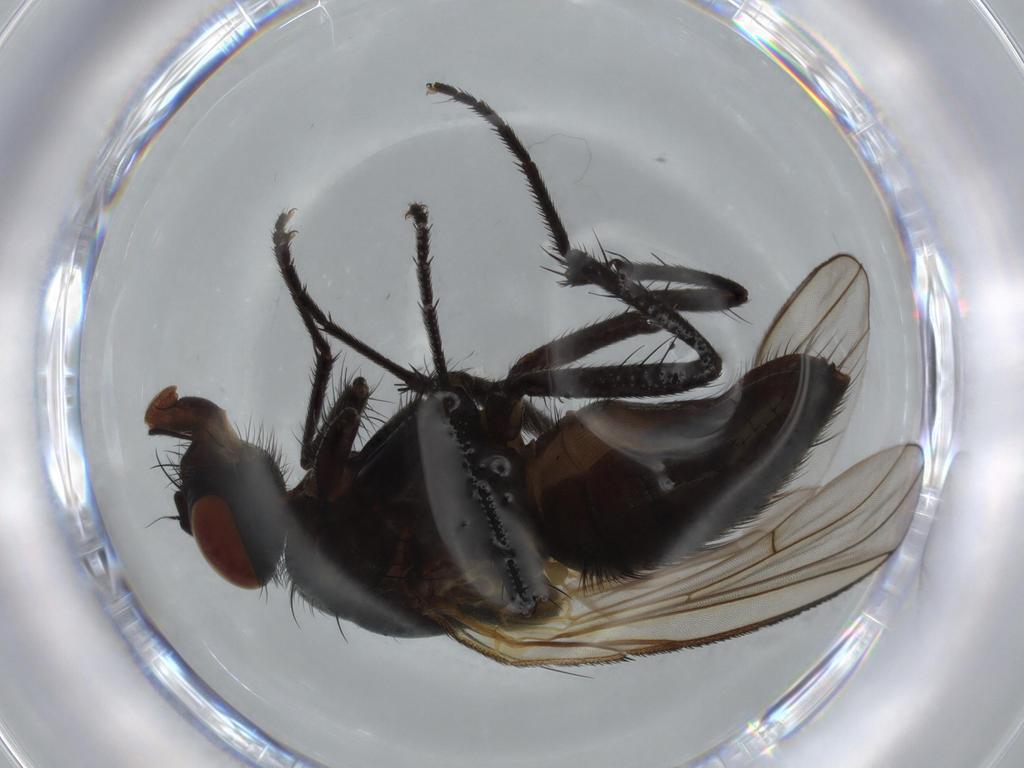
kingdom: Animalia
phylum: Arthropoda
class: Insecta
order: Diptera
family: Muscidae
